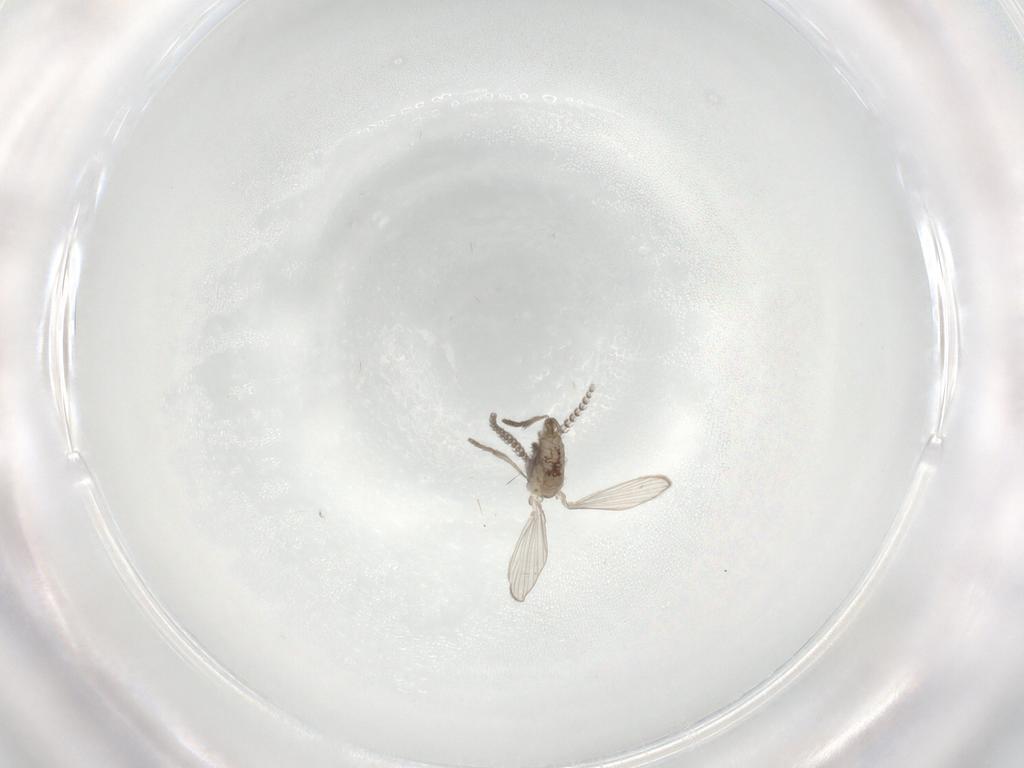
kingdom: Animalia
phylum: Arthropoda
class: Insecta
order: Diptera
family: Psychodidae
